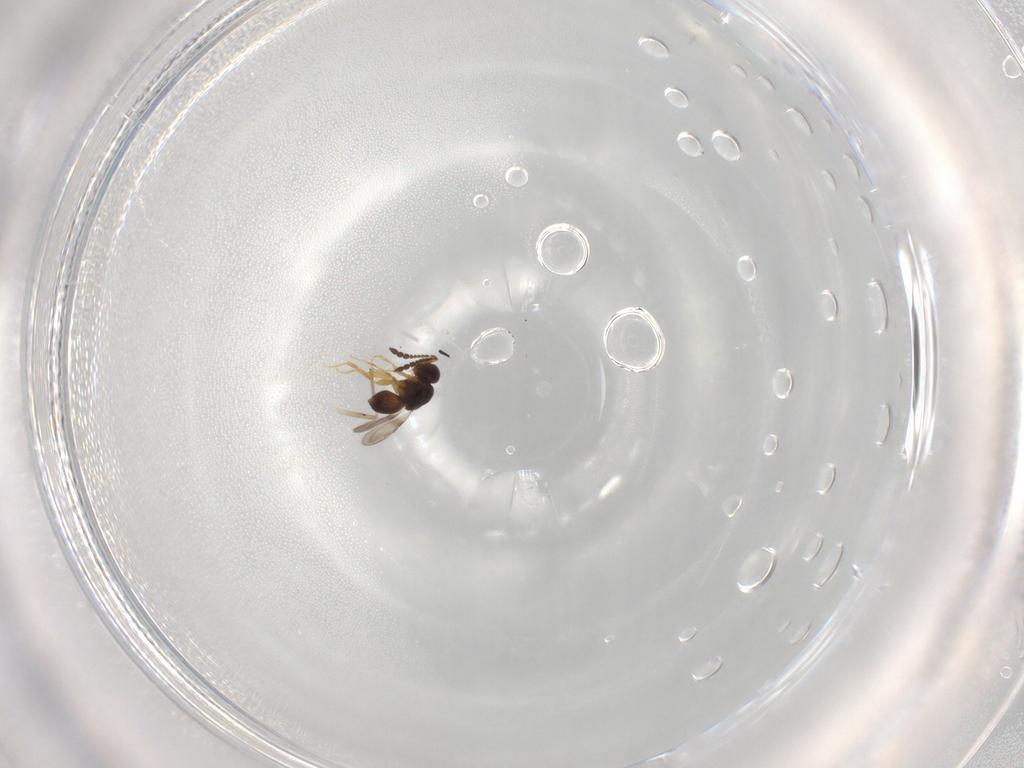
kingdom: Animalia
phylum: Arthropoda
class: Insecta
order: Hymenoptera
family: Ceraphronidae
